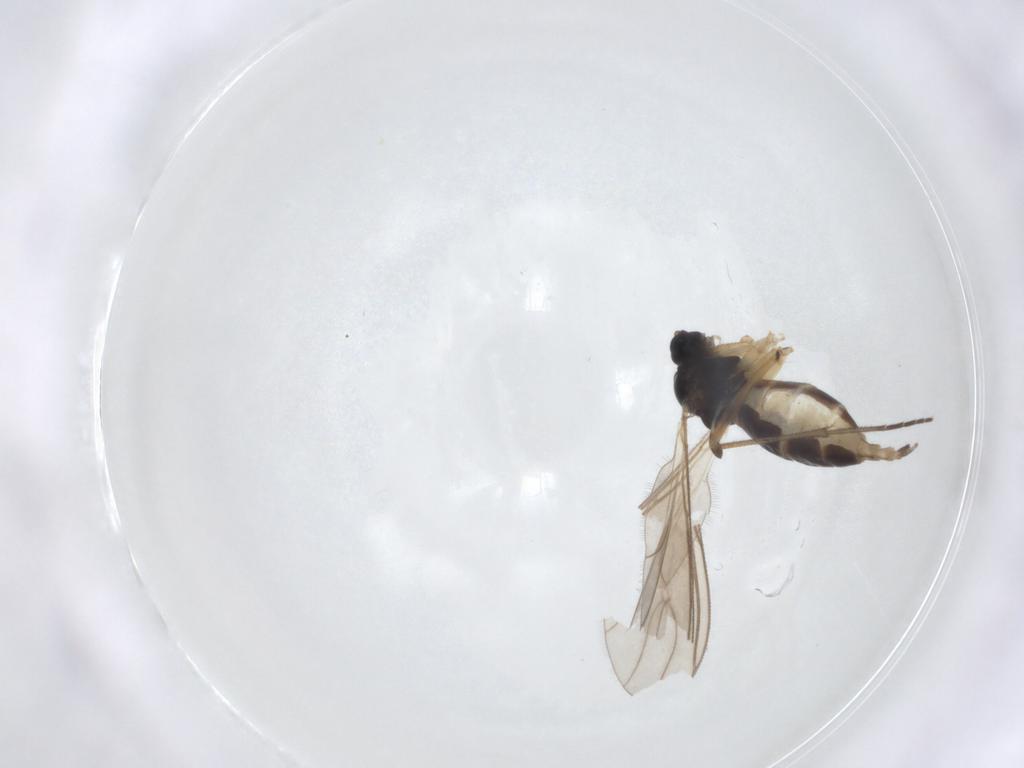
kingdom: Animalia
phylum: Arthropoda
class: Insecta
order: Diptera
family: Sciaridae
